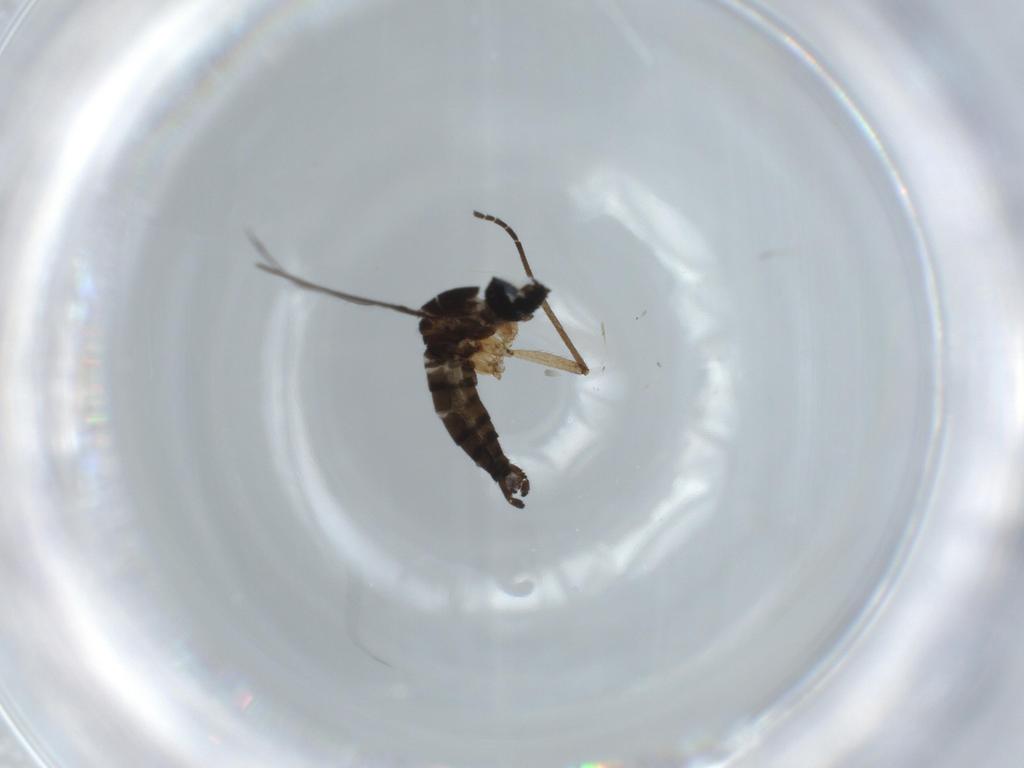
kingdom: Animalia
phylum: Arthropoda
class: Insecta
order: Diptera
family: Sciaridae
